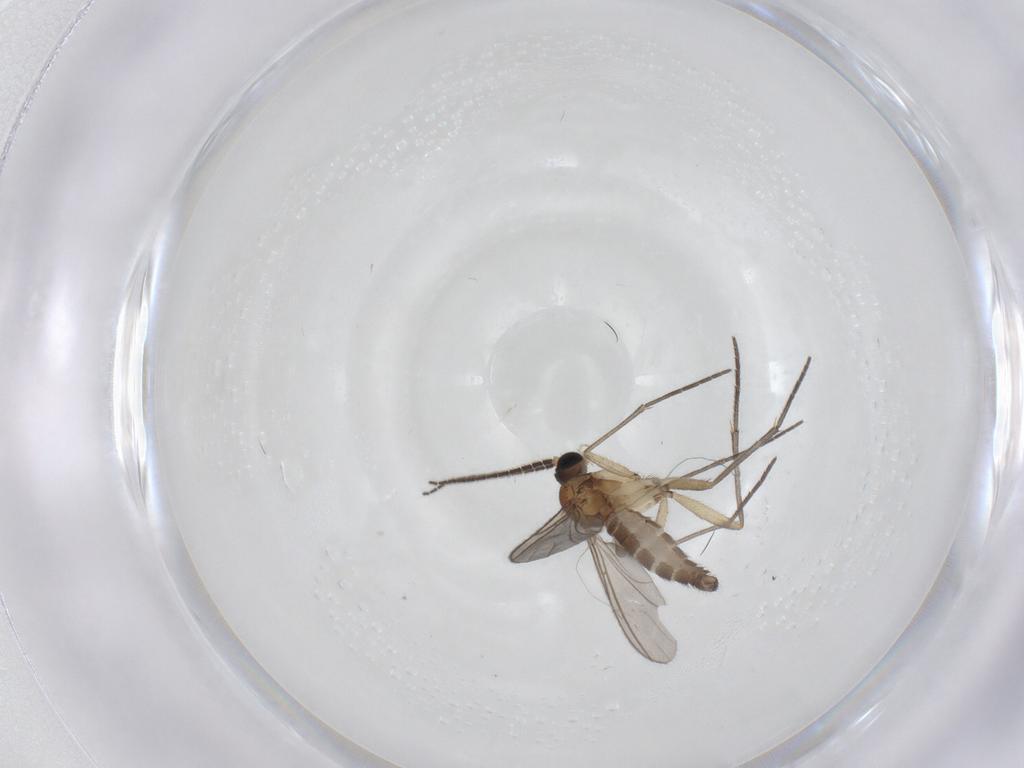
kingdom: Animalia
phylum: Arthropoda
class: Insecta
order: Diptera
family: Sciaridae
